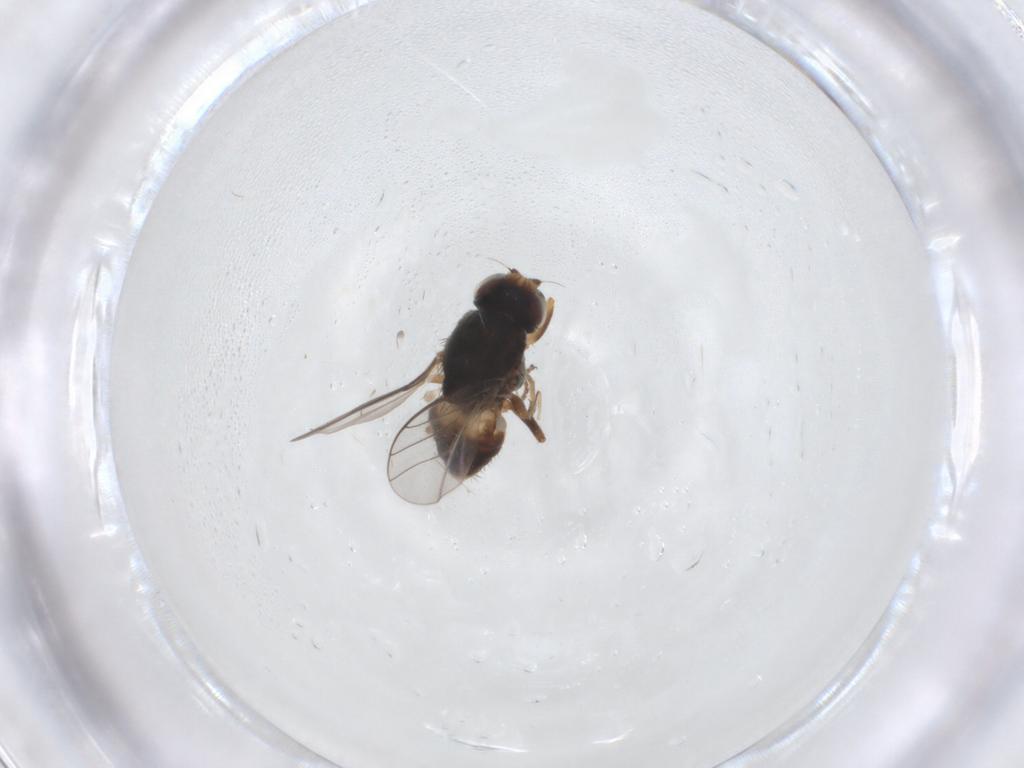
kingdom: Animalia
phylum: Arthropoda
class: Insecta
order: Diptera
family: Chloropidae
